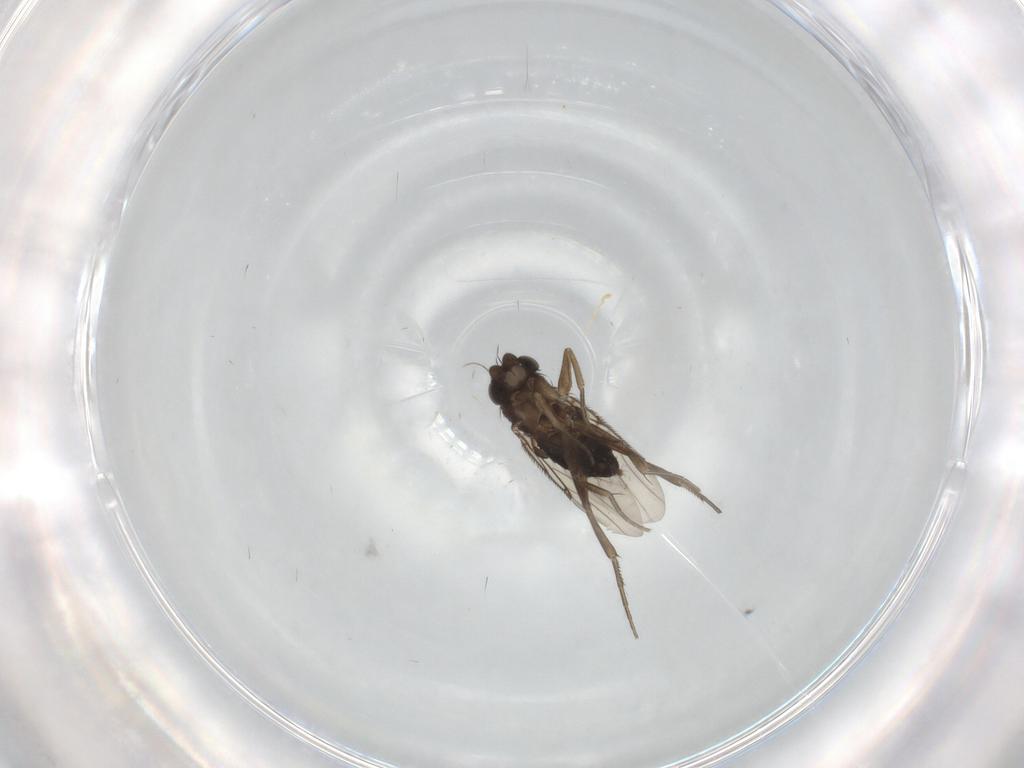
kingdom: Animalia
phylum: Arthropoda
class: Insecta
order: Diptera
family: Phoridae
